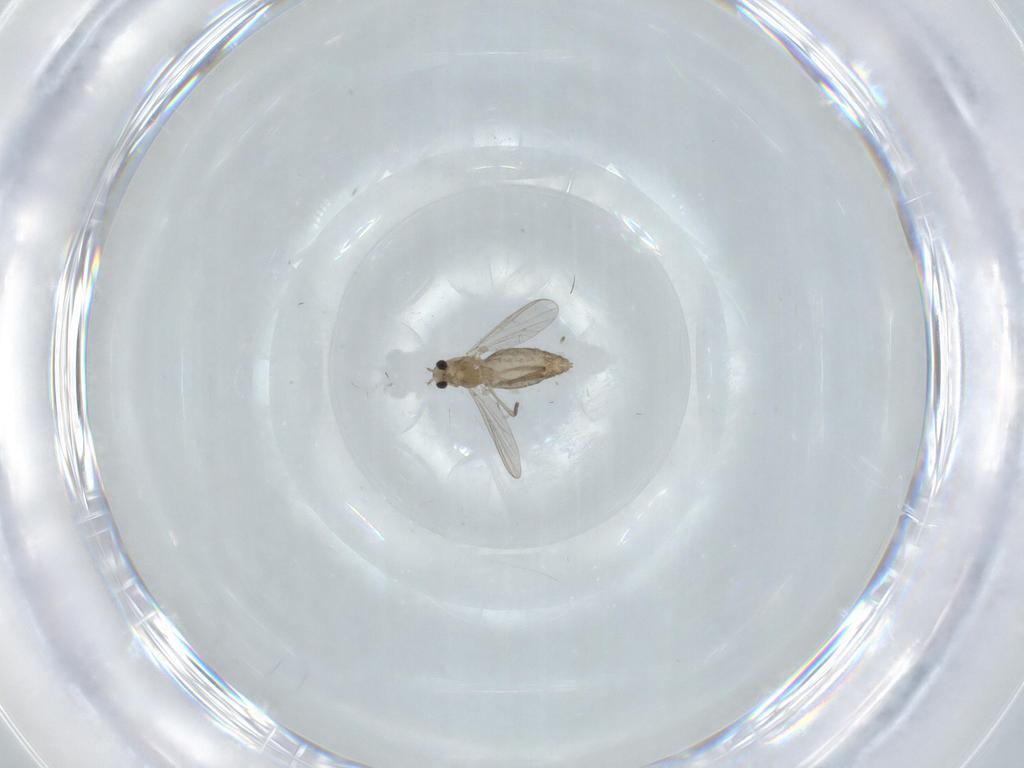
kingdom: Animalia
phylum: Arthropoda
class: Insecta
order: Diptera
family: Chironomidae
